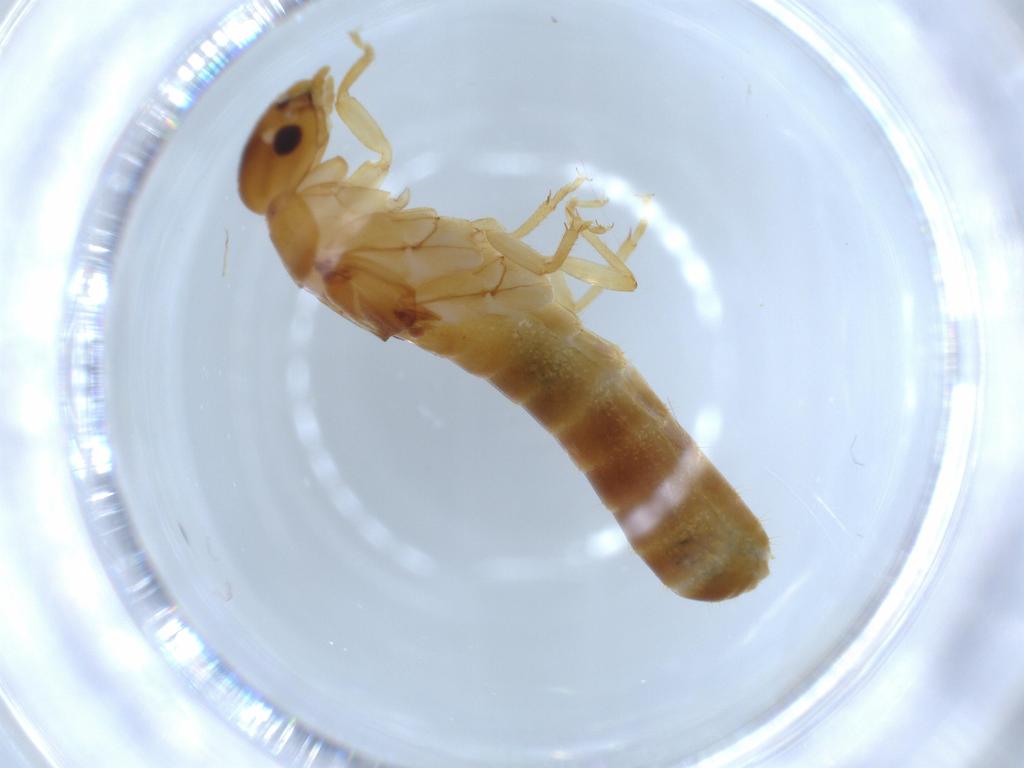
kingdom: Animalia
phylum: Arthropoda
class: Insecta
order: Blattodea
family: Kalotermitidae
